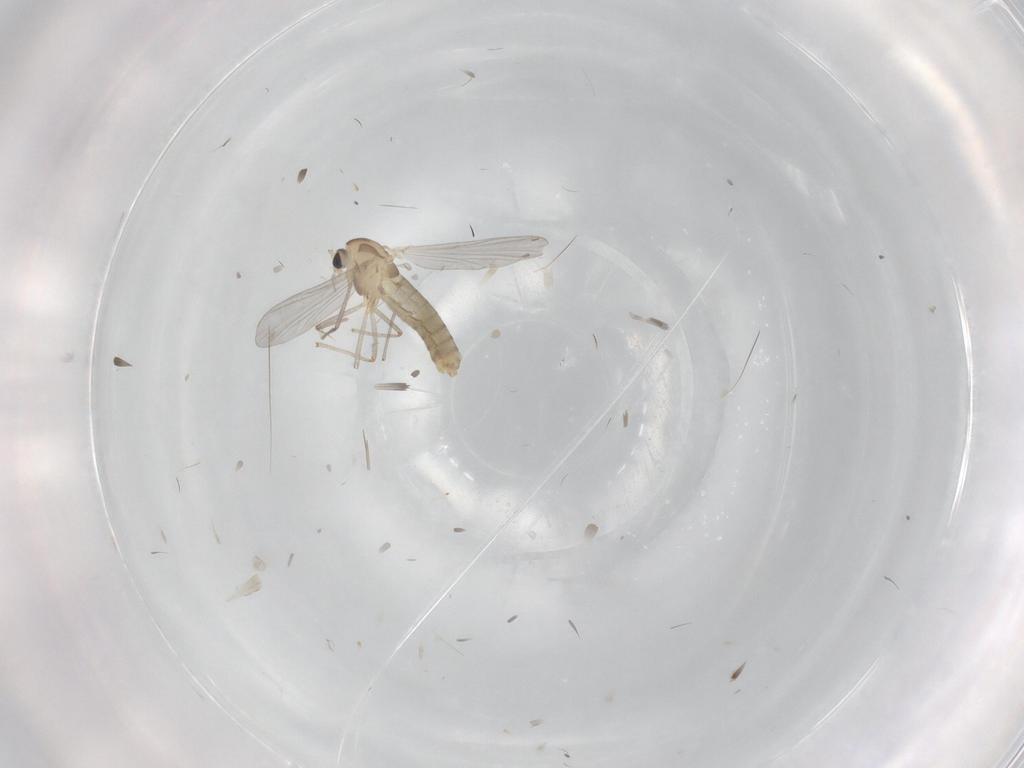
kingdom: Animalia
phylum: Arthropoda
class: Insecta
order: Diptera
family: Chironomidae
